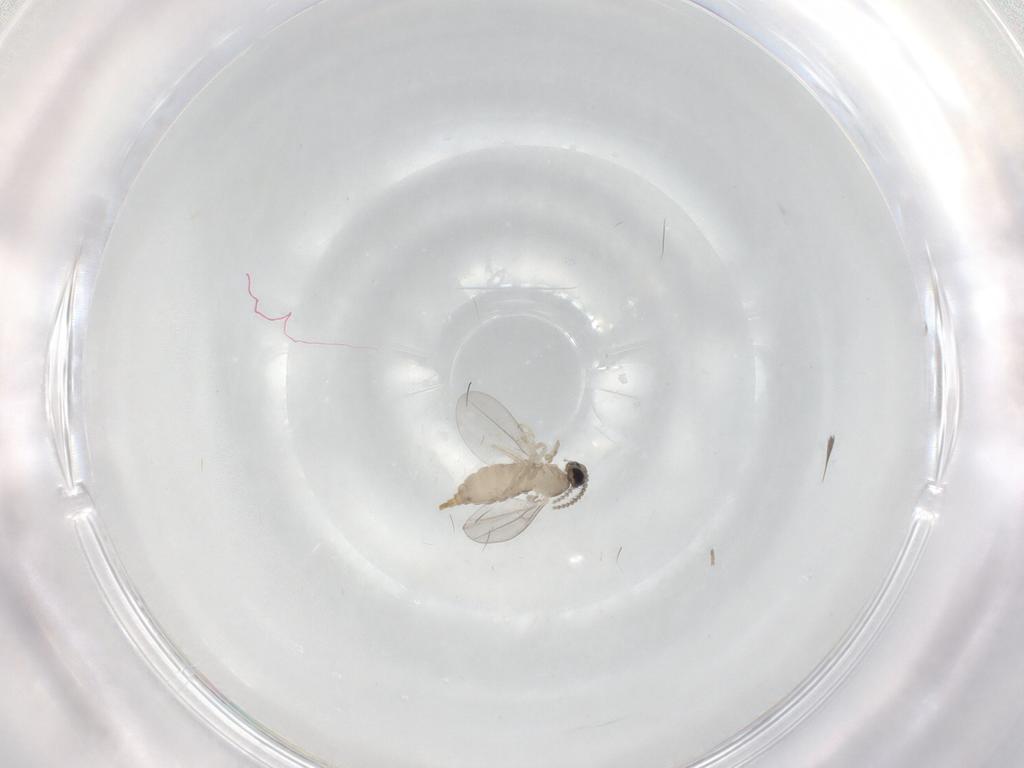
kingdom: Animalia
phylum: Arthropoda
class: Insecta
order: Diptera
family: Cecidomyiidae
